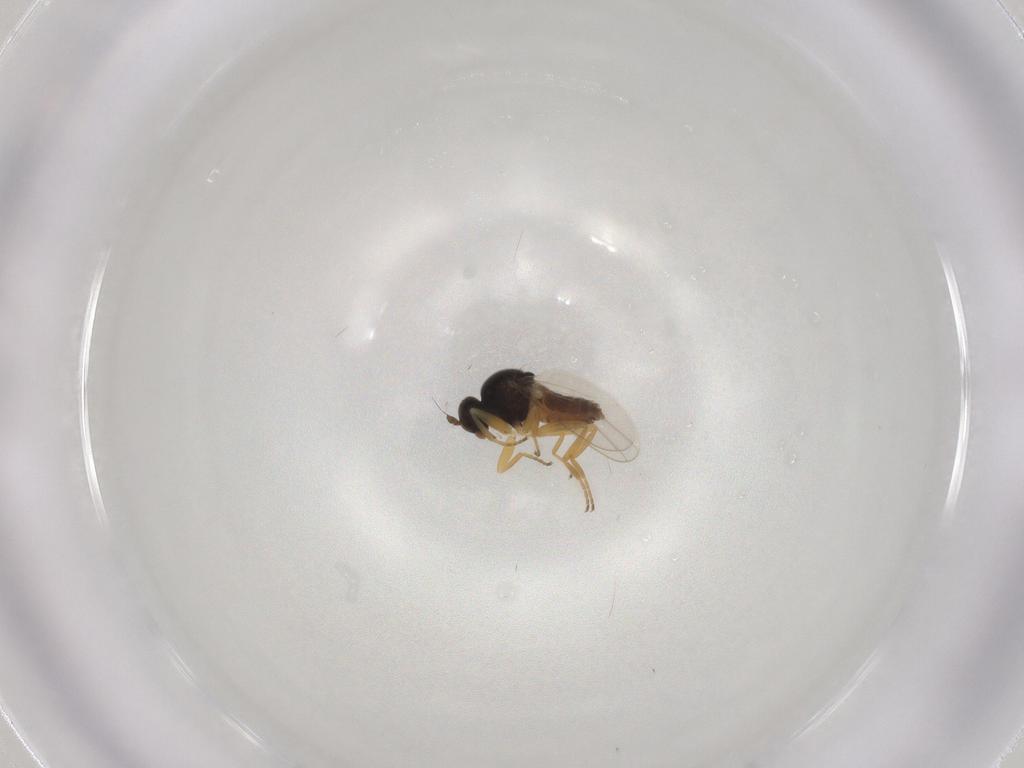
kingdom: Animalia
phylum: Arthropoda
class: Insecta
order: Diptera
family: Hybotidae
